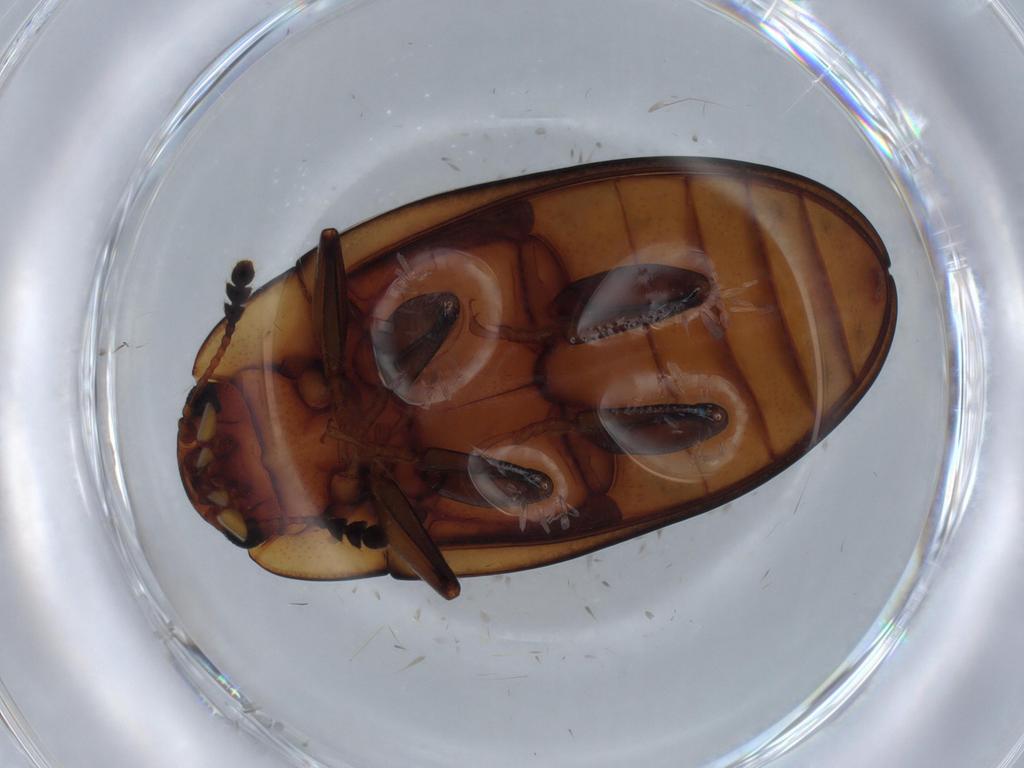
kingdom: Animalia
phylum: Arthropoda
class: Insecta
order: Coleoptera
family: Erotylidae
